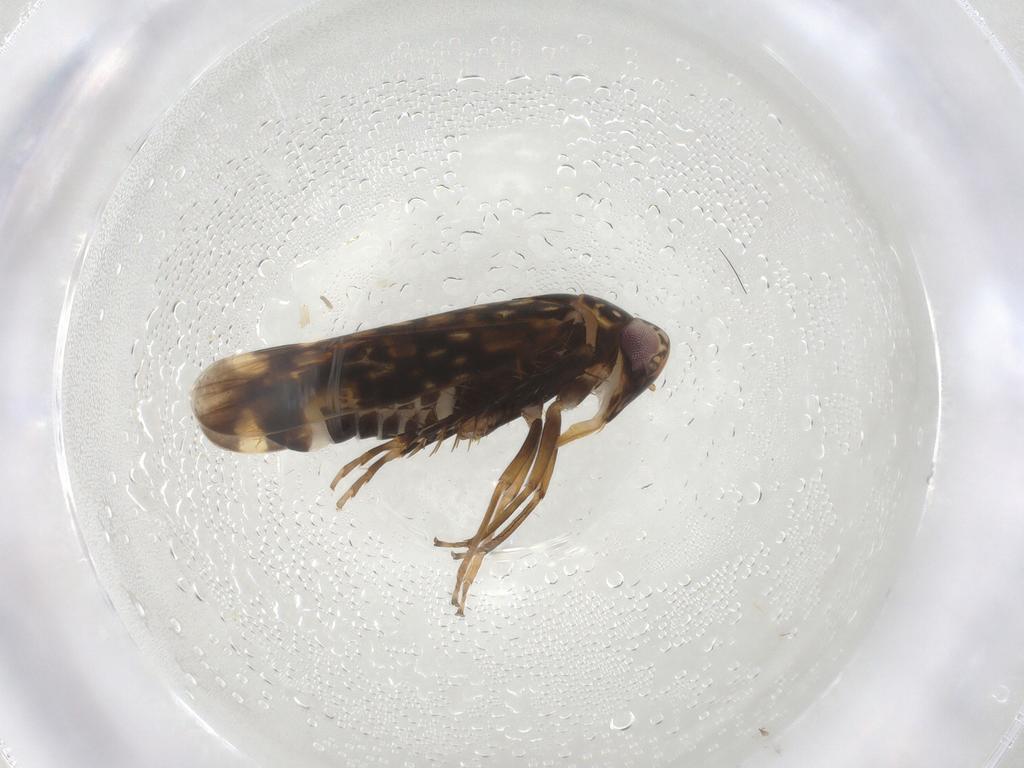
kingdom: Animalia
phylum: Arthropoda
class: Insecta
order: Hemiptera
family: Cicadellidae
